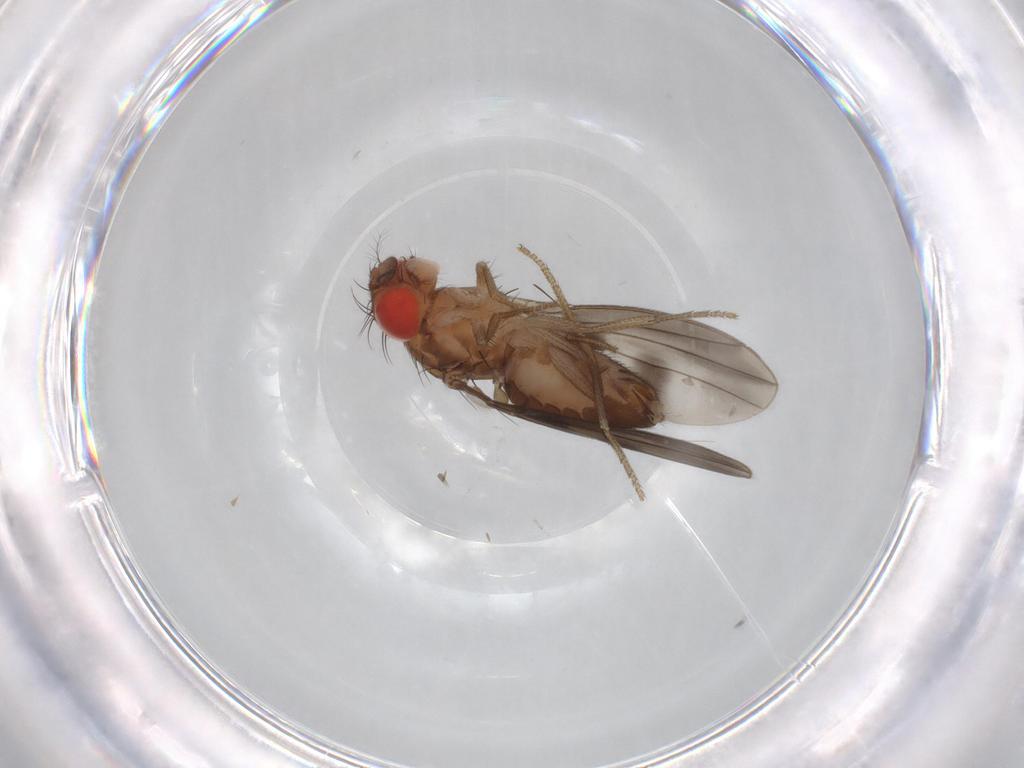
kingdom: Animalia
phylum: Arthropoda
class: Insecta
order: Diptera
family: Drosophilidae
